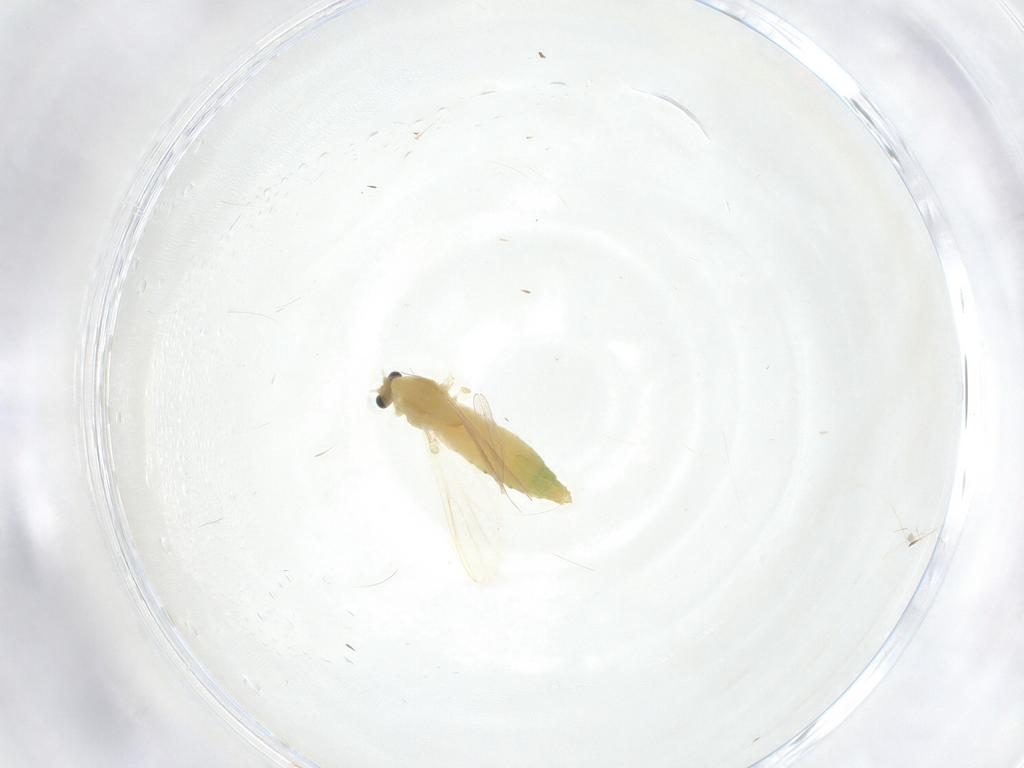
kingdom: Animalia
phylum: Arthropoda
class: Insecta
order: Diptera
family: Chironomidae
